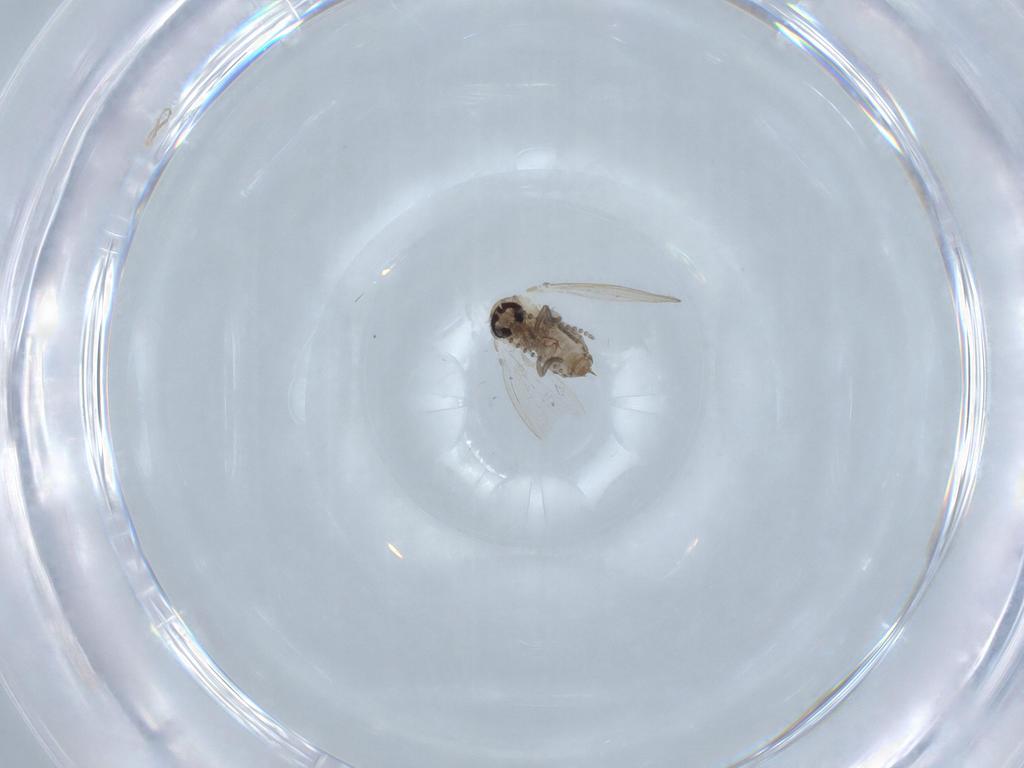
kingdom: Animalia
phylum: Arthropoda
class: Insecta
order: Diptera
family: Psychodidae
